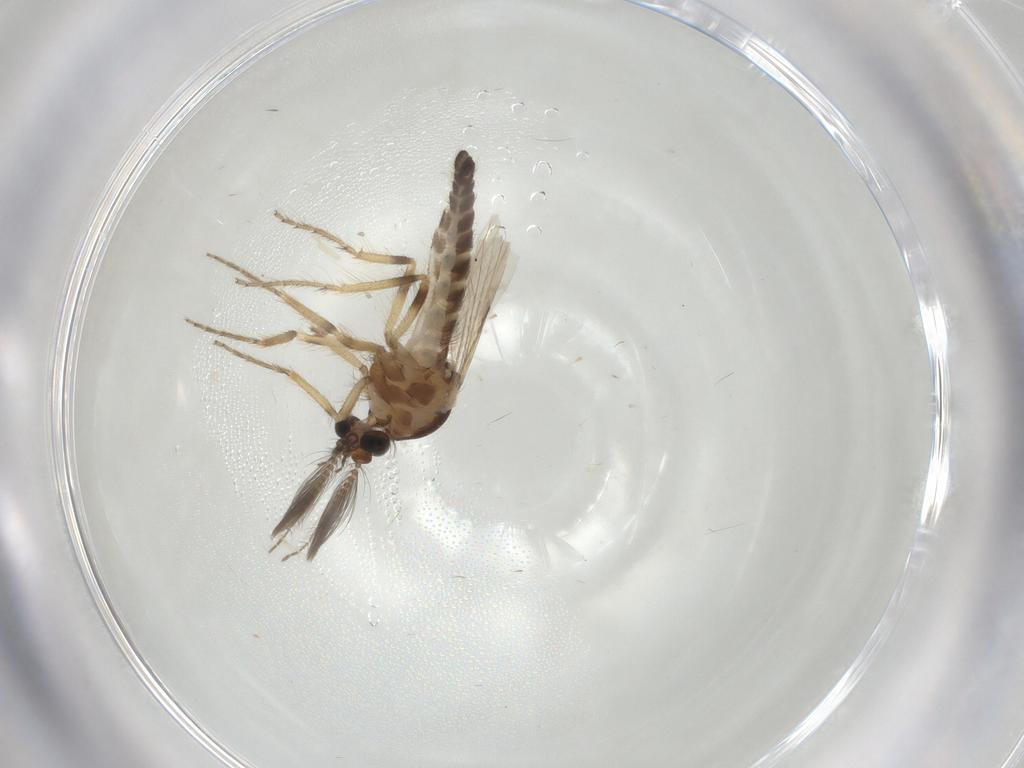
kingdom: Animalia
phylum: Arthropoda
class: Insecta
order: Diptera
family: Ceratopogonidae
